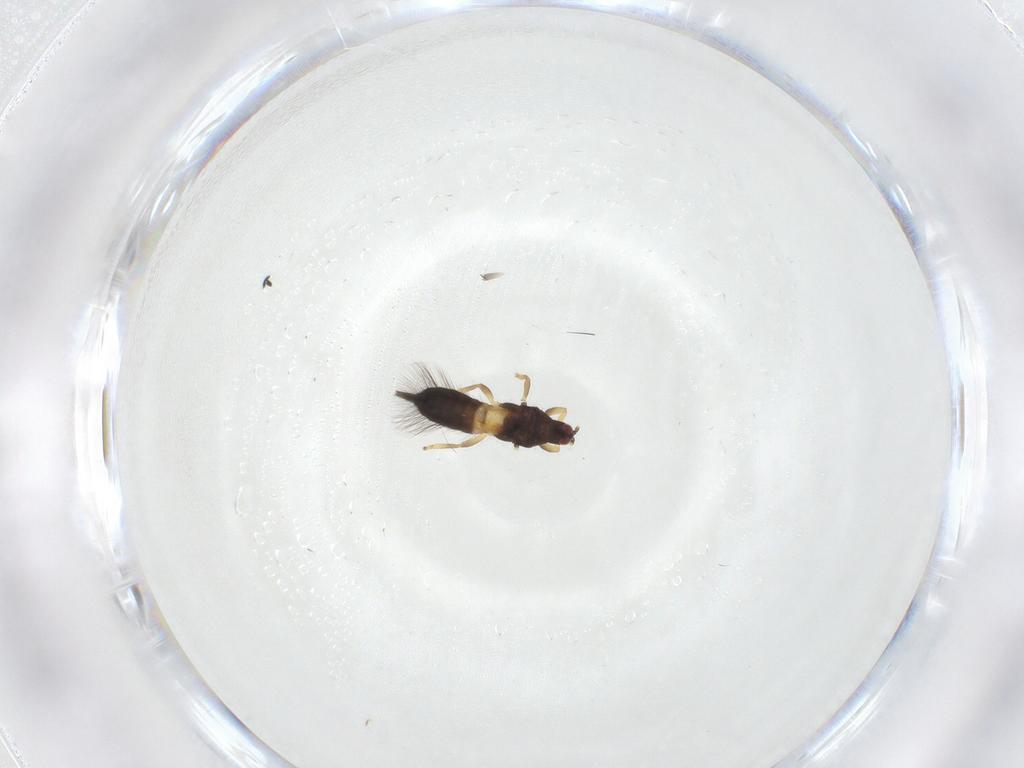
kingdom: Animalia
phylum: Arthropoda
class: Insecta
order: Thysanoptera
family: Phlaeothripidae
